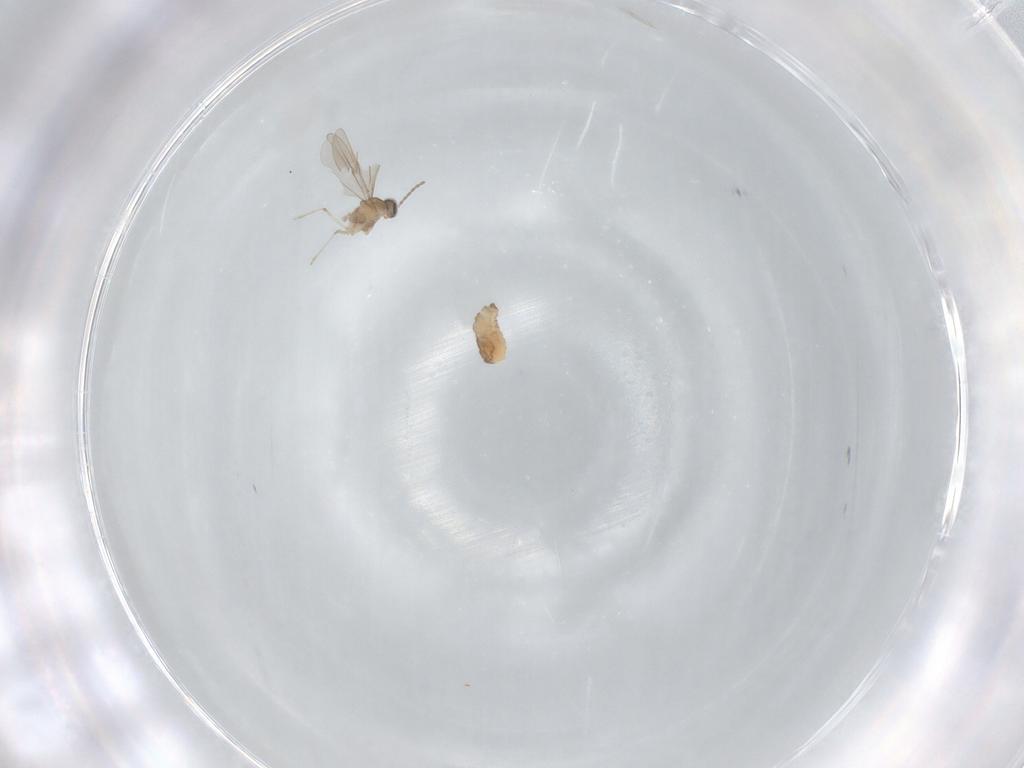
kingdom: Animalia
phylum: Arthropoda
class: Insecta
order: Diptera
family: Cecidomyiidae
